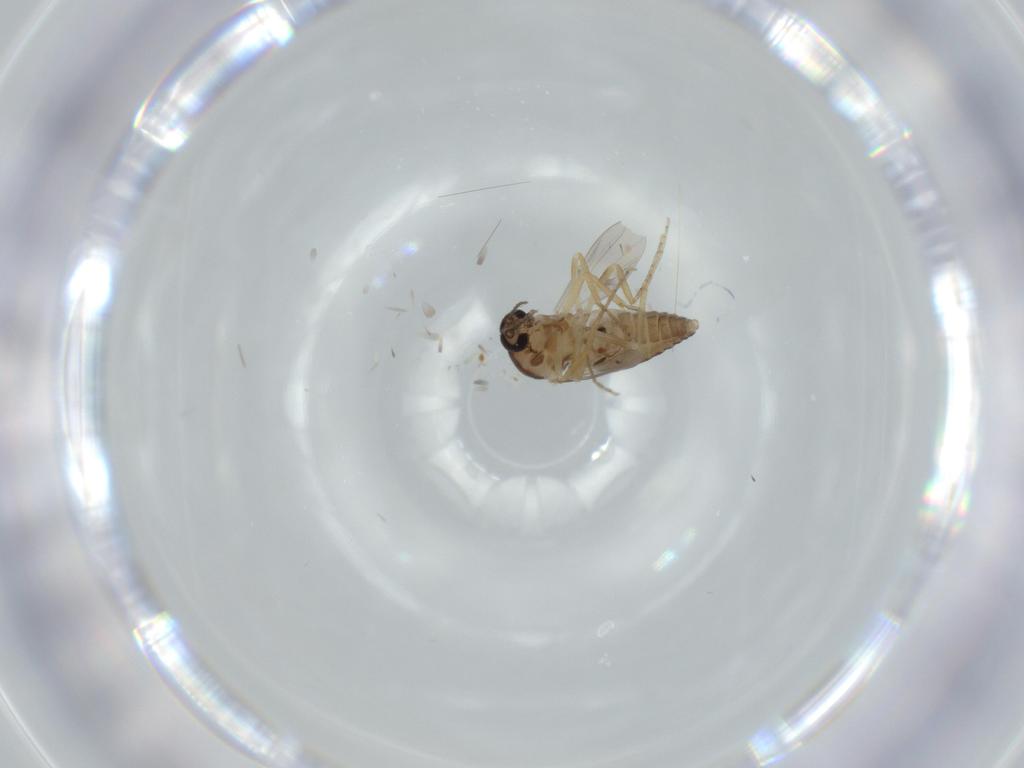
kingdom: Animalia
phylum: Arthropoda
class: Insecta
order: Diptera
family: Ceratopogonidae
